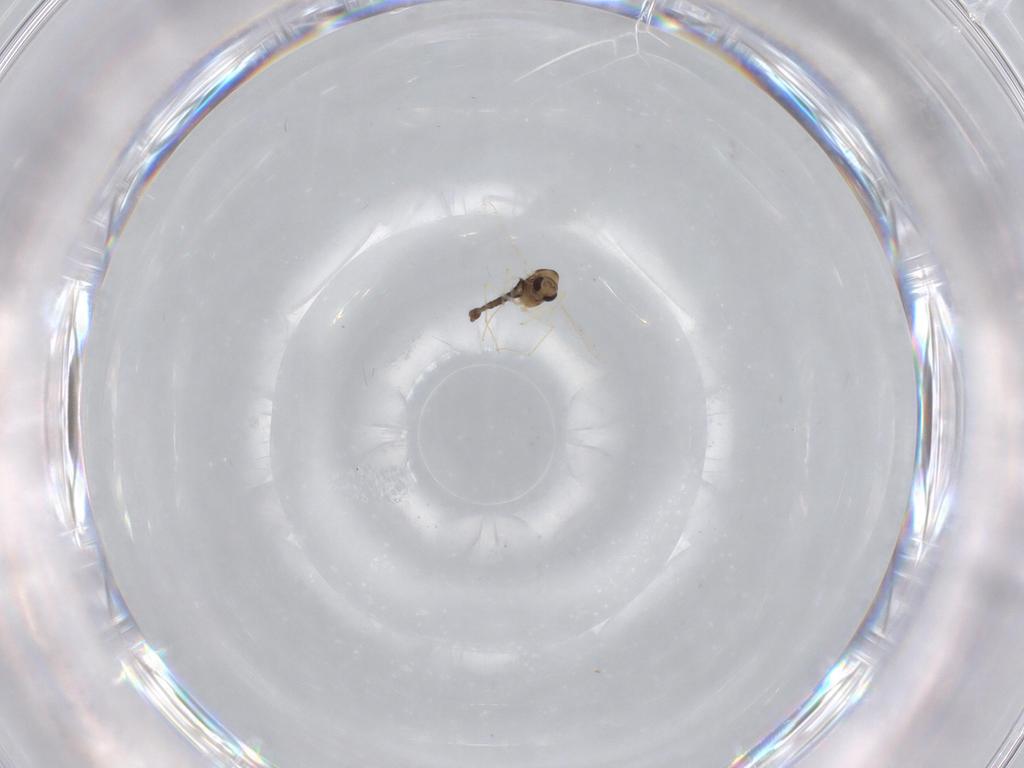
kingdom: Animalia
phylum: Arthropoda
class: Insecta
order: Diptera
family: Chironomidae
